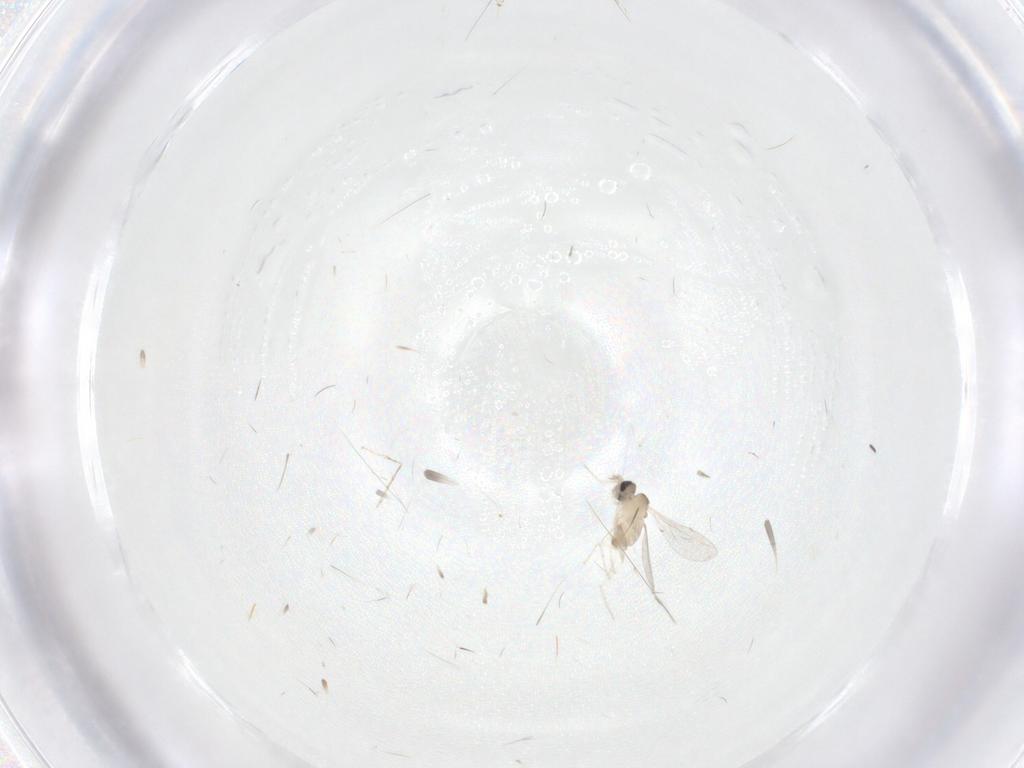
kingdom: Animalia
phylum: Arthropoda
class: Insecta
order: Diptera
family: Cecidomyiidae
